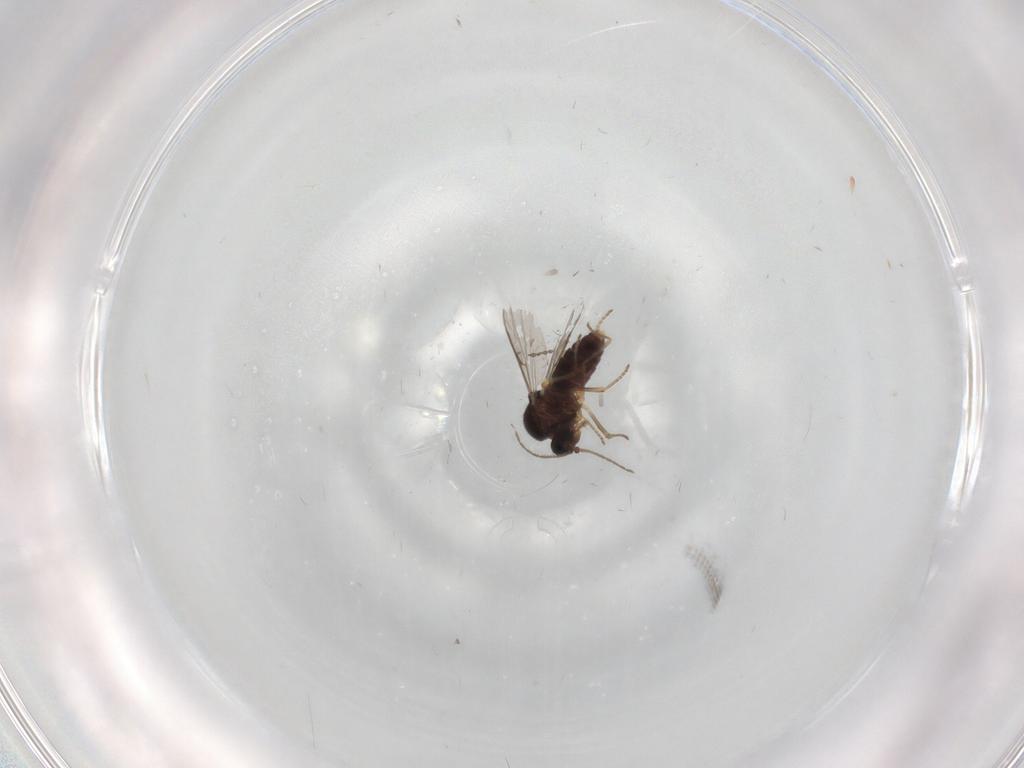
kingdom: Animalia
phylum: Arthropoda
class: Insecta
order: Diptera
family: Ceratopogonidae
